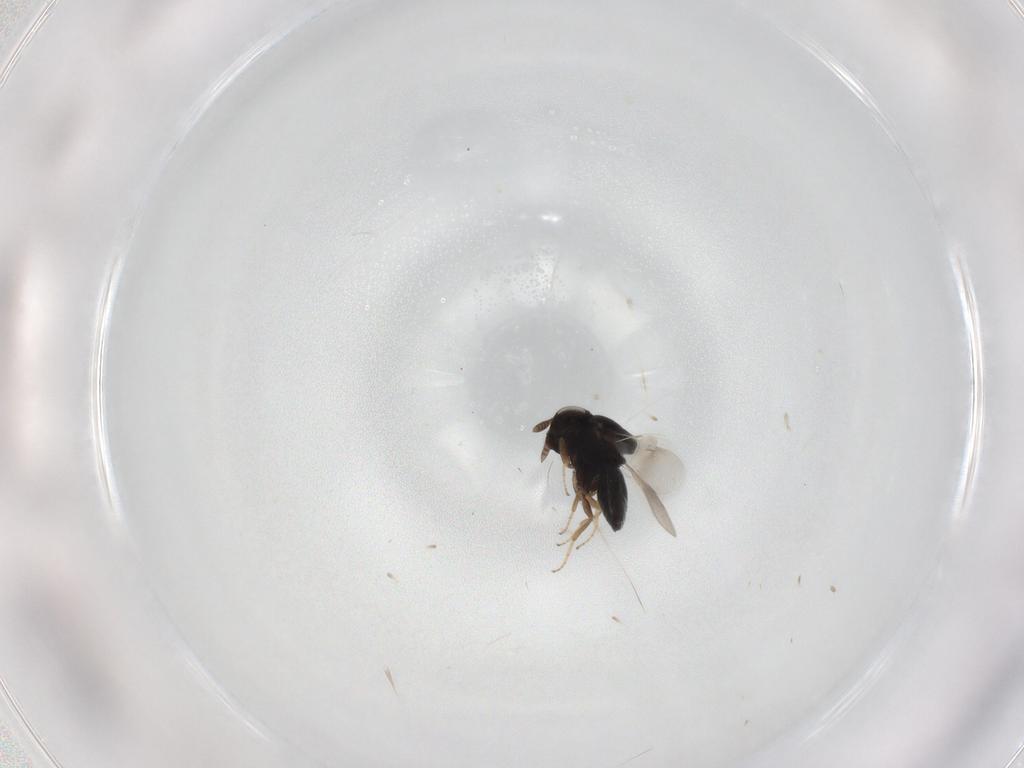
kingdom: Animalia
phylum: Arthropoda
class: Insecta
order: Hymenoptera
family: Scelionidae
